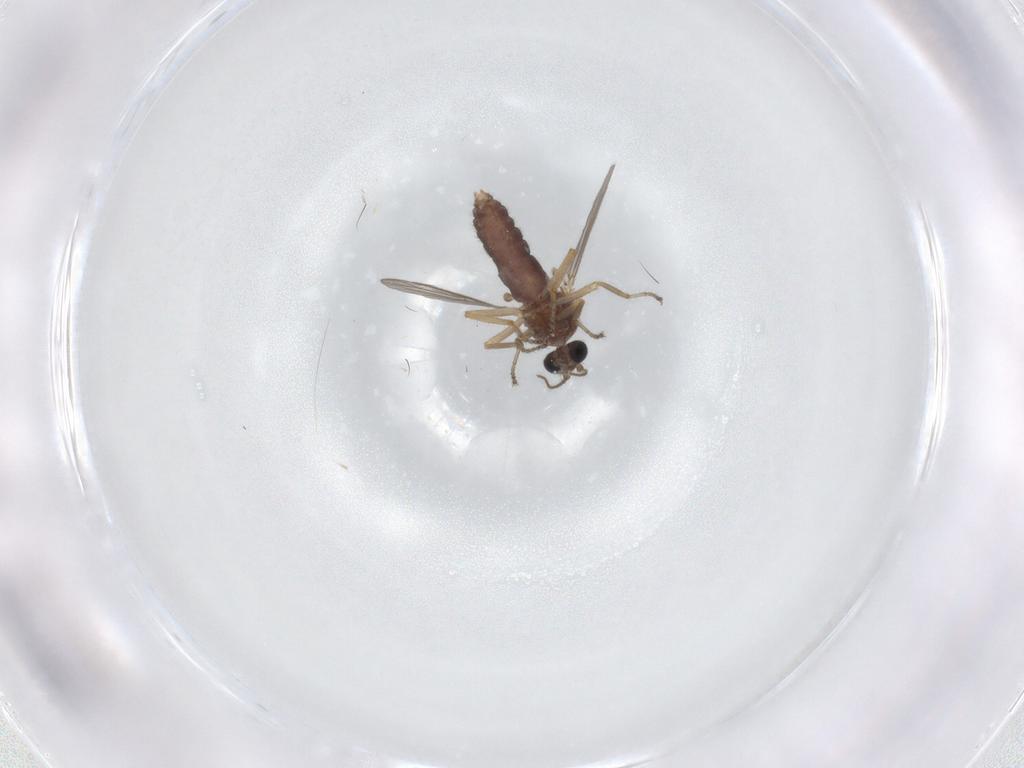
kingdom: Animalia
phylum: Arthropoda
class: Insecta
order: Diptera
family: Ceratopogonidae
